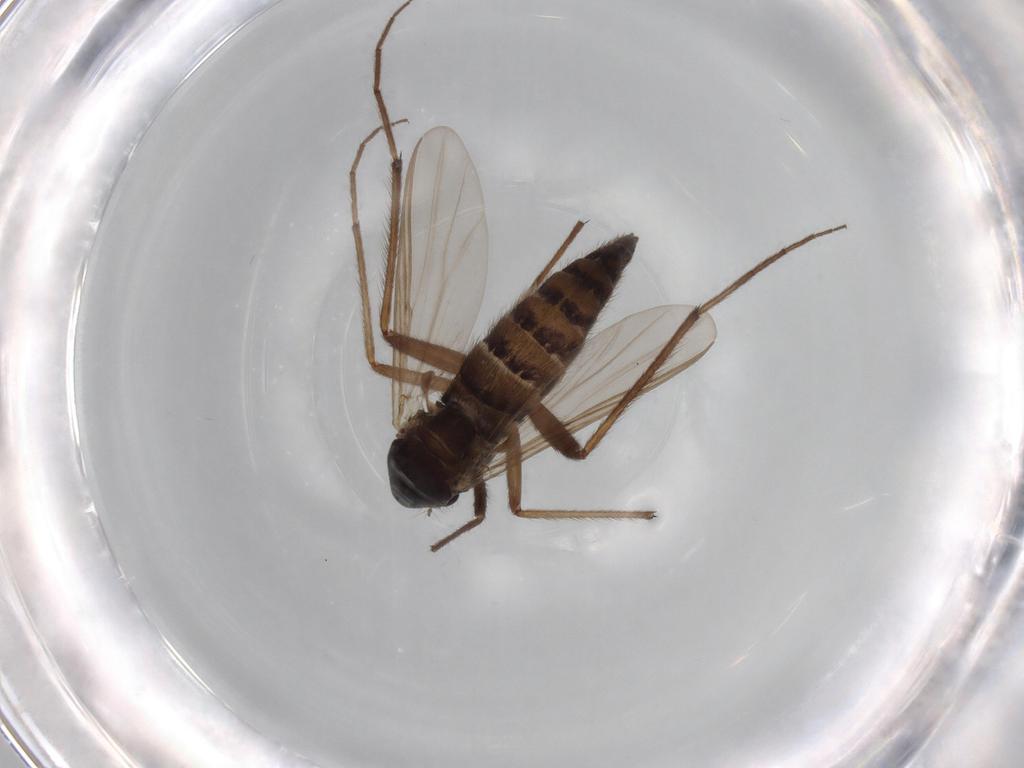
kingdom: Animalia
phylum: Arthropoda
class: Insecta
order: Diptera
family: Chironomidae
